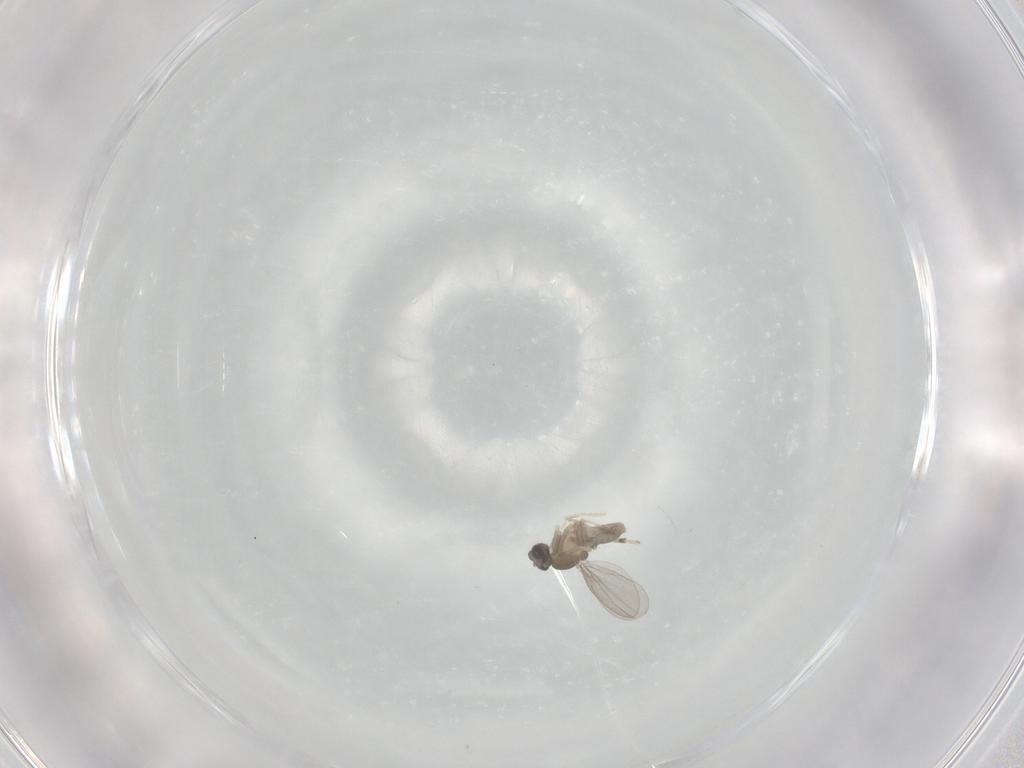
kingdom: Animalia
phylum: Arthropoda
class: Insecta
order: Diptera
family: Cecidomyiidae
